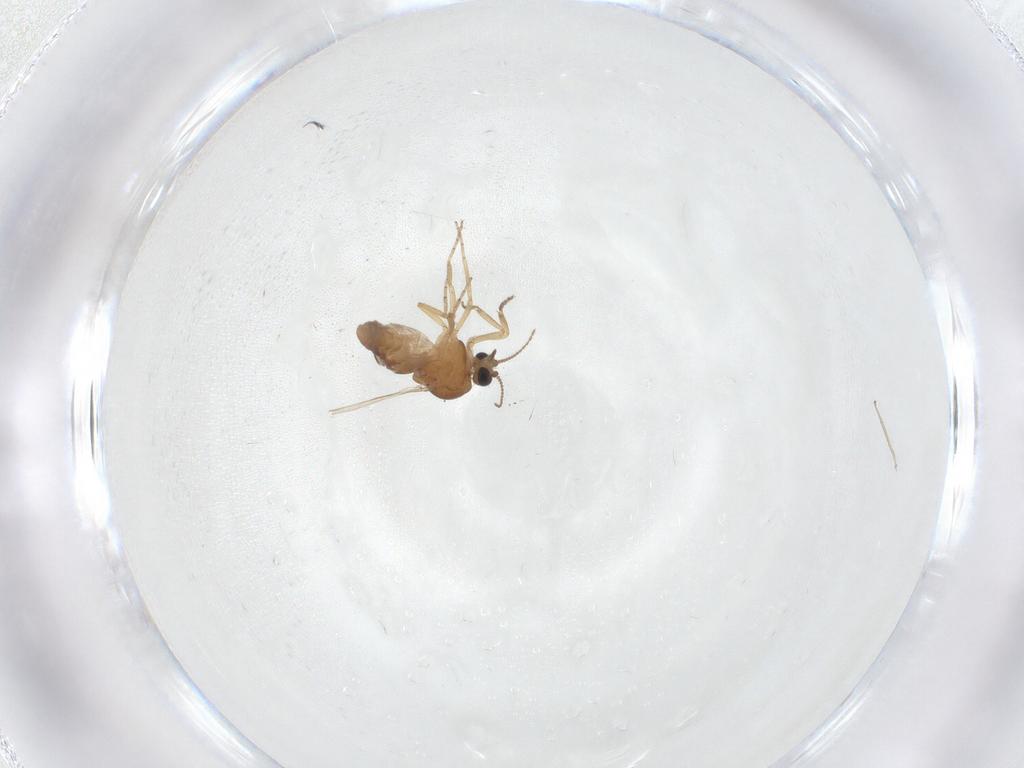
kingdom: Animalia
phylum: Arthropoda
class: Insecta
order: Diptera
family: Ceratopogonidae
